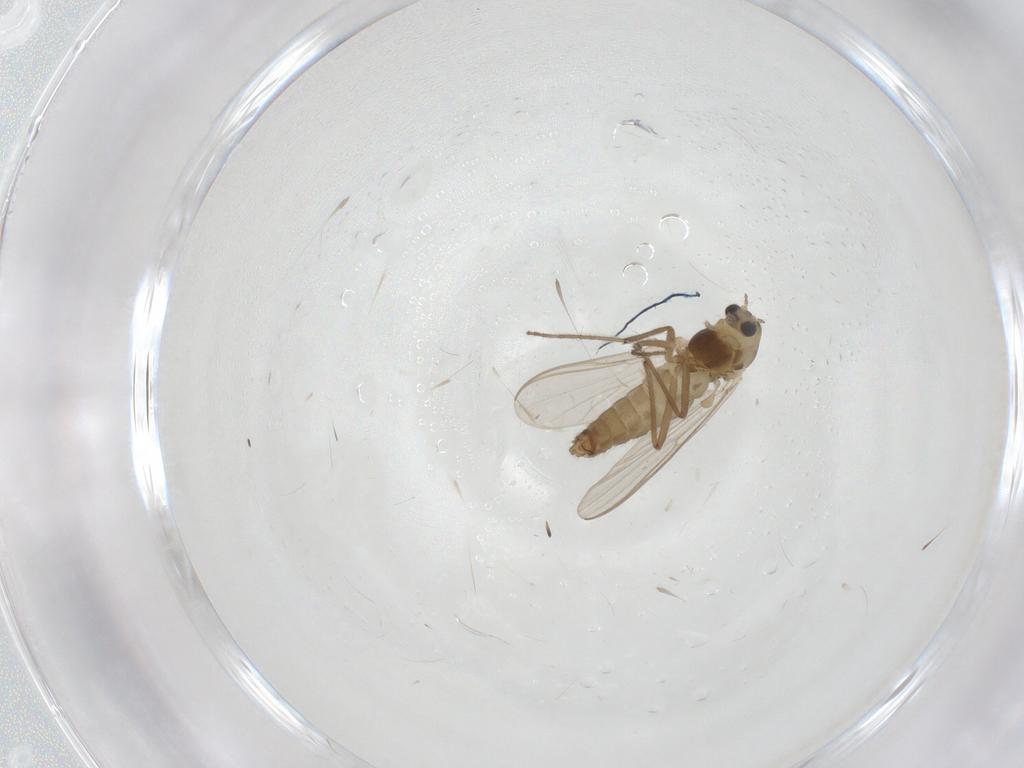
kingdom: Animalia
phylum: Arthropoda
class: Insecta
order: Diptera
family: Chironomidae
